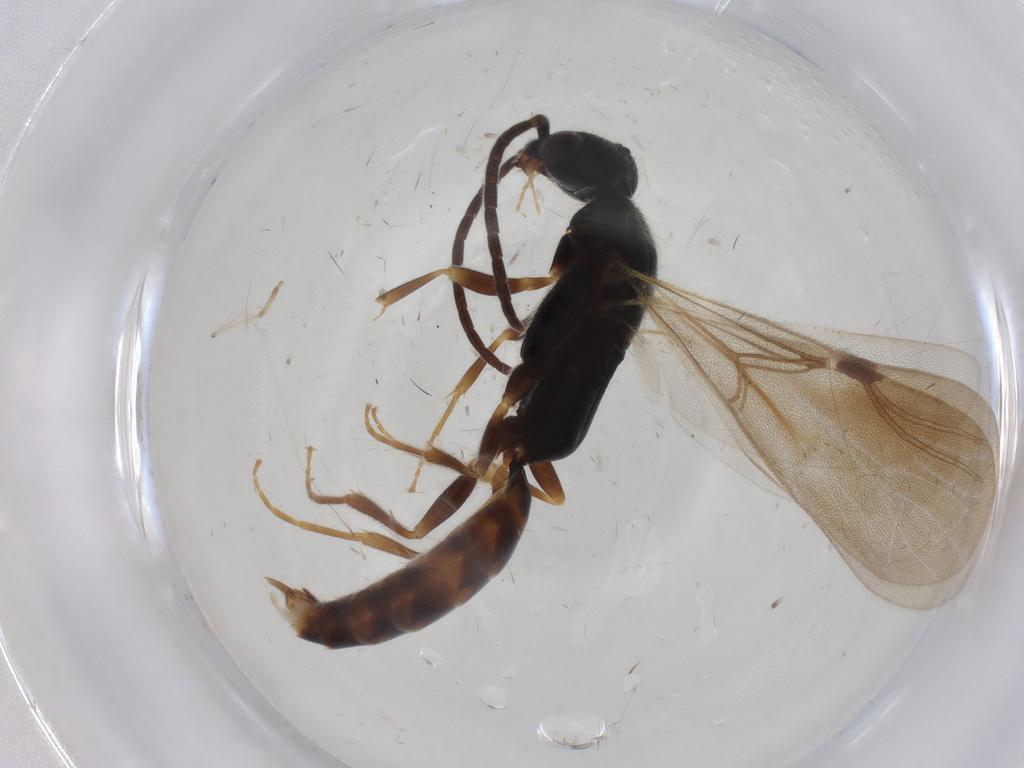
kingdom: Animalia
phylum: Arthropoda
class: Insecta
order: Hymenoptera
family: Bethylidae
